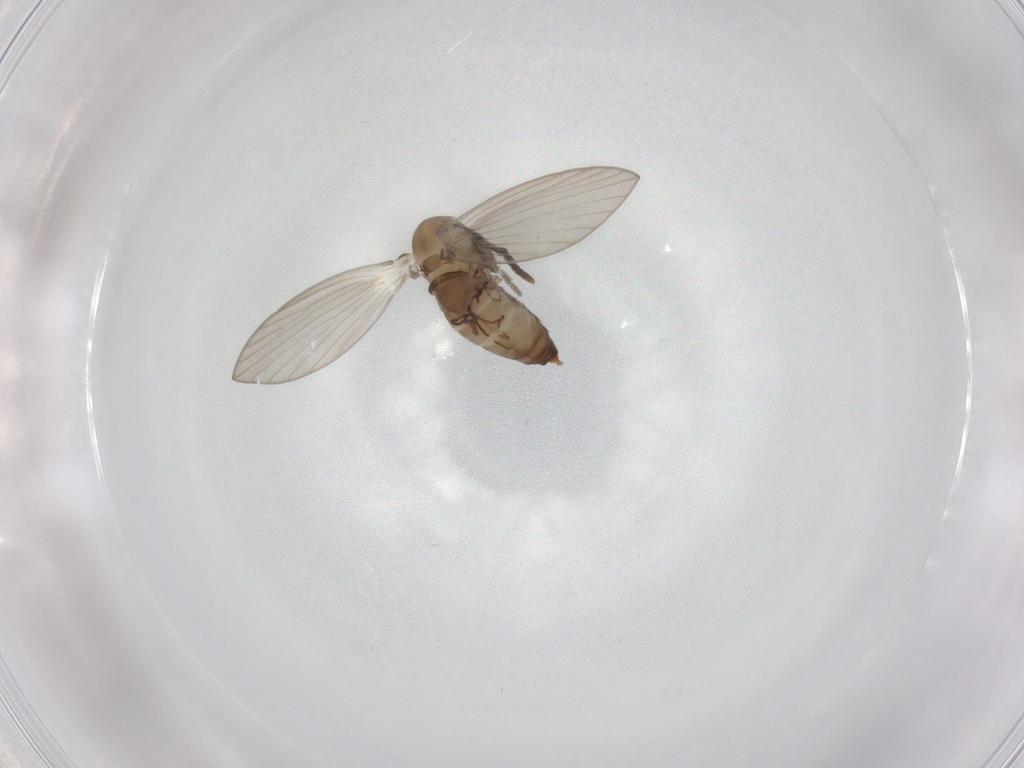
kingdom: Animalia
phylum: Arthropoda
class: Insecta
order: Diptera
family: Psychodidae
